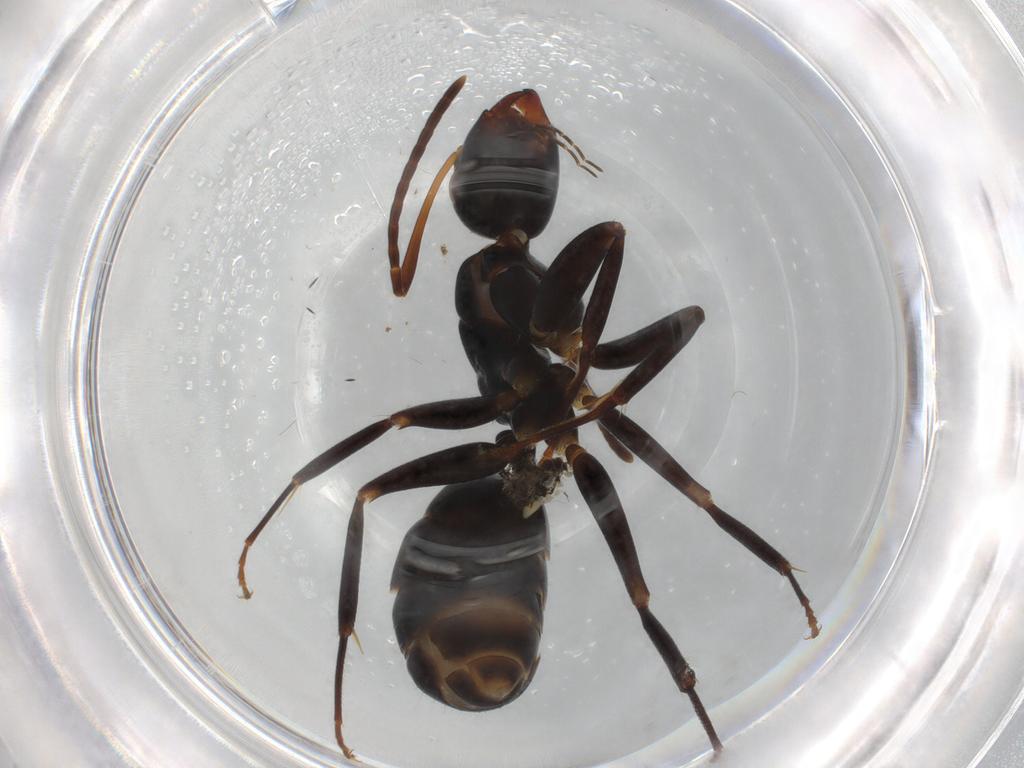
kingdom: Animalia
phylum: Arthropoda
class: Insecta
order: Hymenoptera
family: Formicidae
